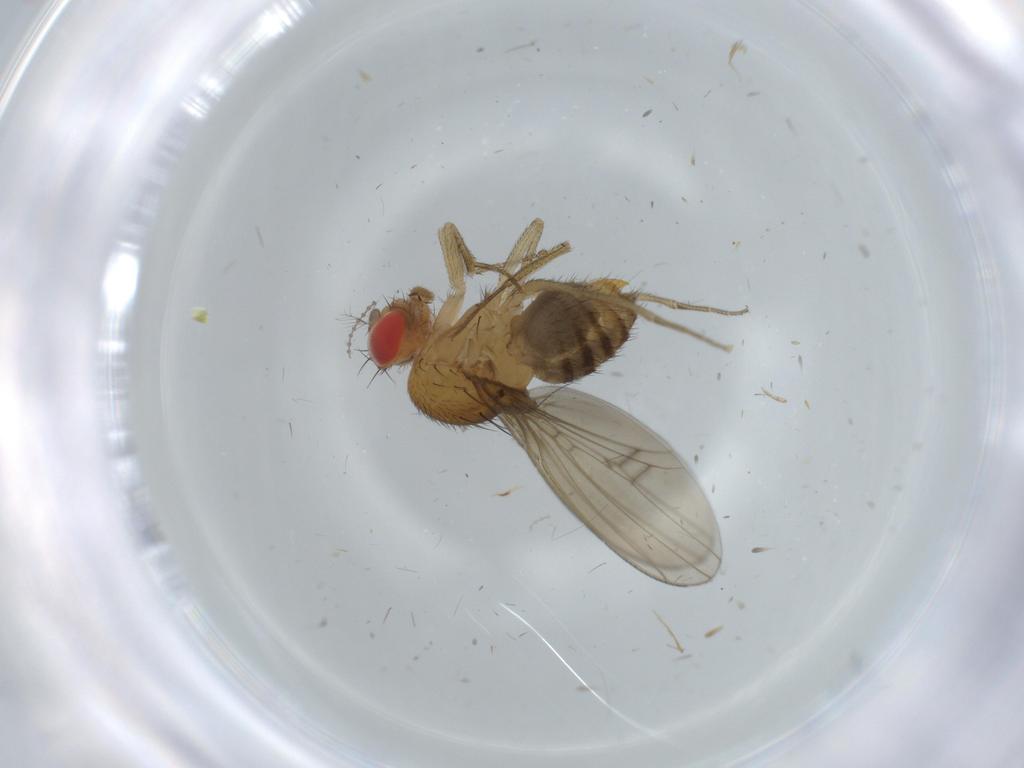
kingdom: Animalia
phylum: Arthropoda
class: Insecta
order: Diptera
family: Drosophilidae
